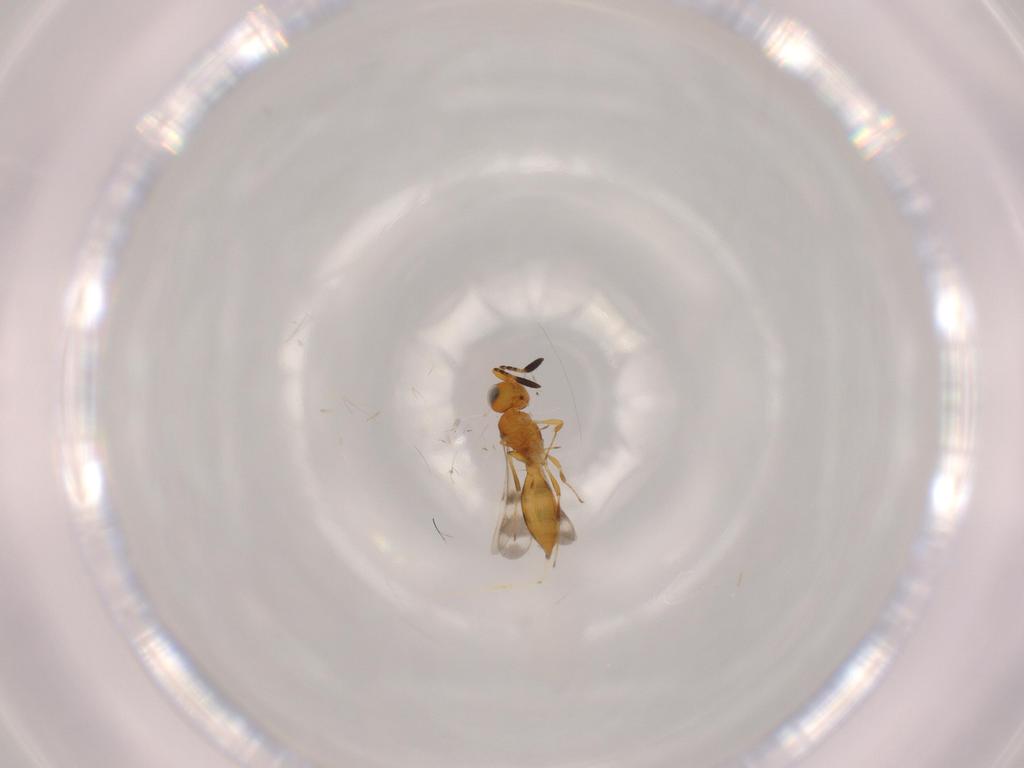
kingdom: Animalia
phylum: Arthropoda
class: Insecta
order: Hymenoptera
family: Scelionidae
